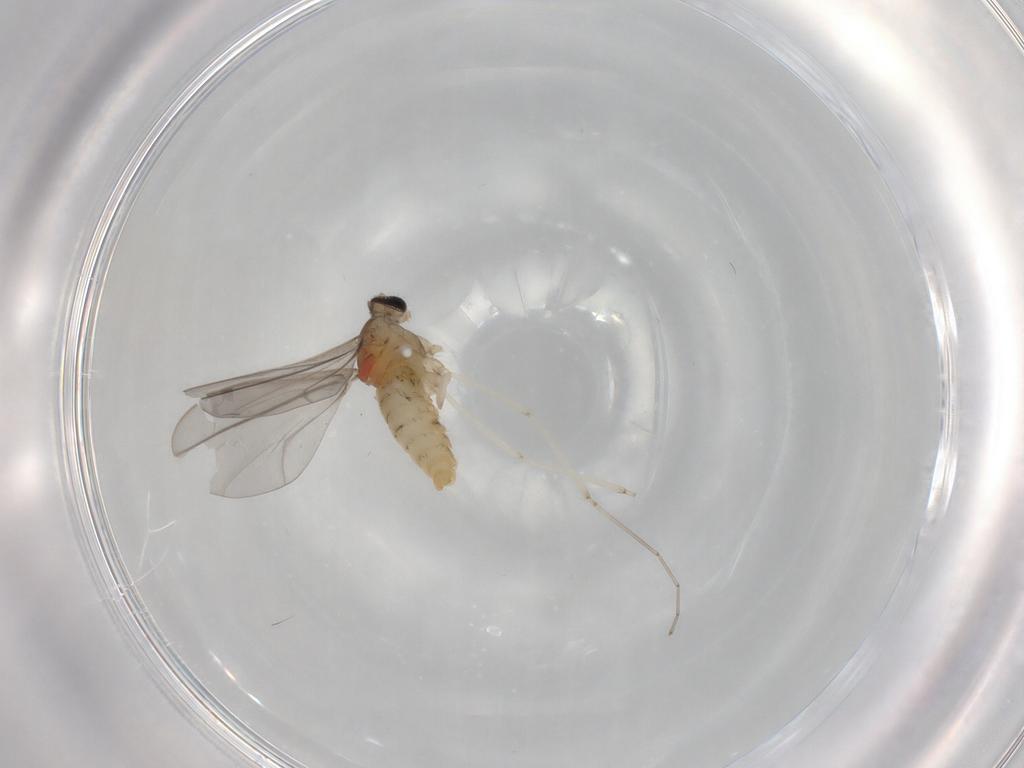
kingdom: Animalia
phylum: Arthropoda
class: Insecta
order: Diptera
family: Cecidomyiidae
